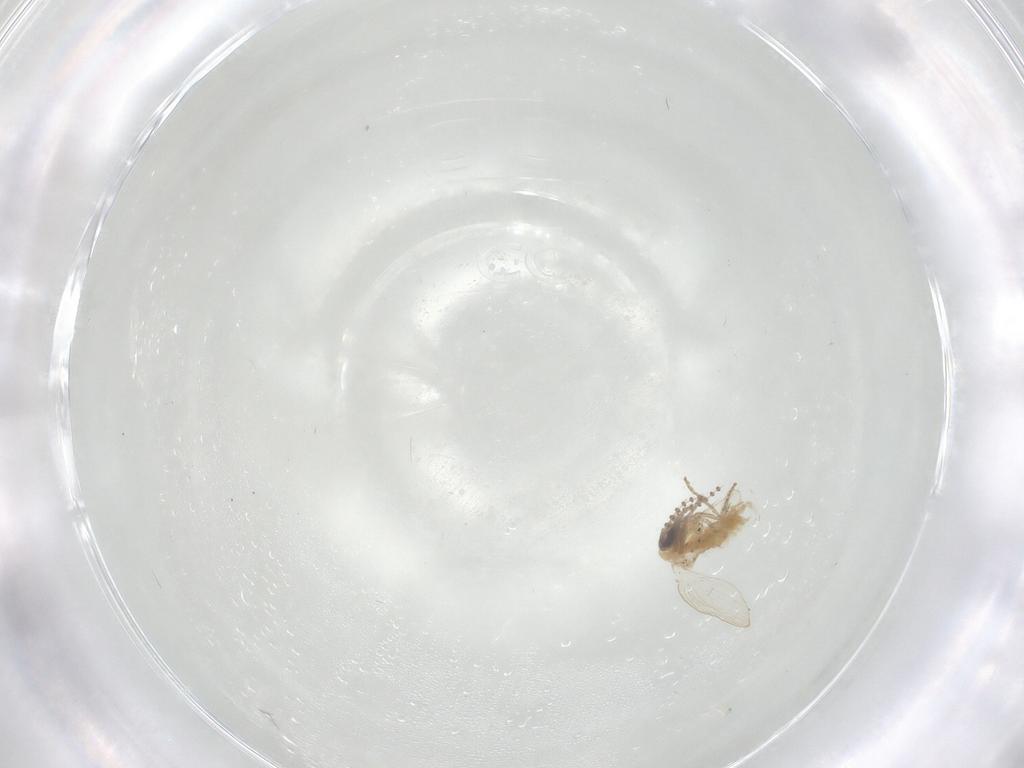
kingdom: Animalia
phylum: Arthropoda
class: Insecta
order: Diptera
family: Psychodidae
